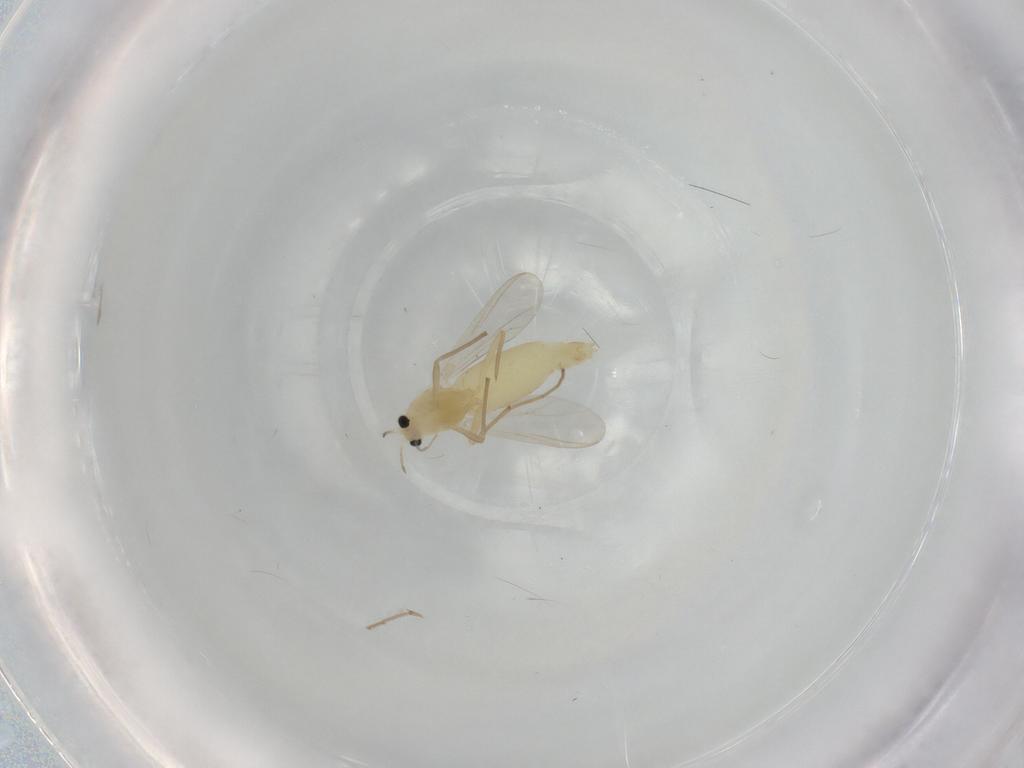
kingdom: Animalia
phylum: Arthropoda
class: Insecta
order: Diptera
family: Chironomidae
